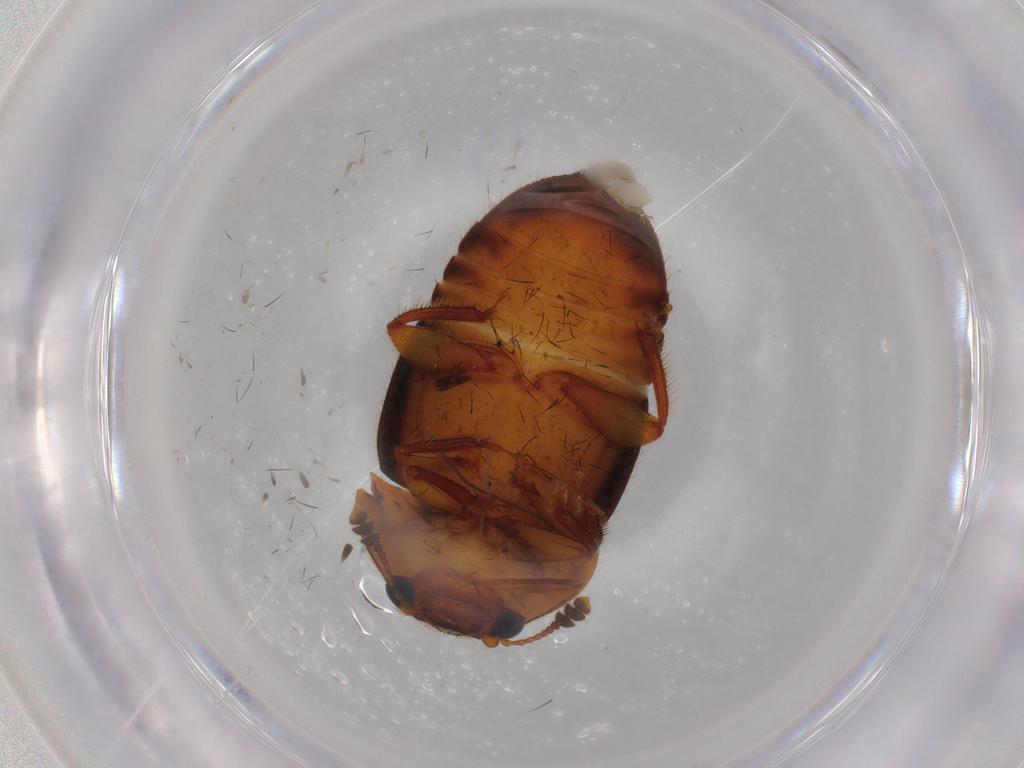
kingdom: Animalia
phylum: Arthropoda
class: Insecta
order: Coleoptera
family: Nitidulidae
